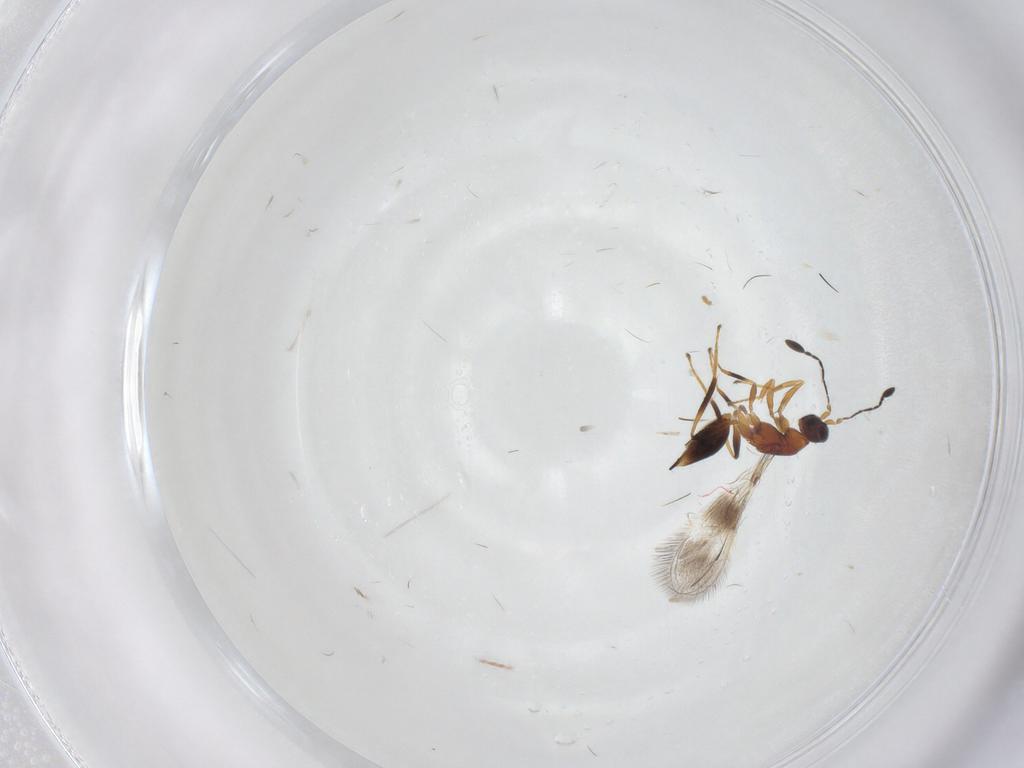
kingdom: Animalia
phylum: Arthropoda
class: Insecta
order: Hymenoptera
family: Mymaridae
